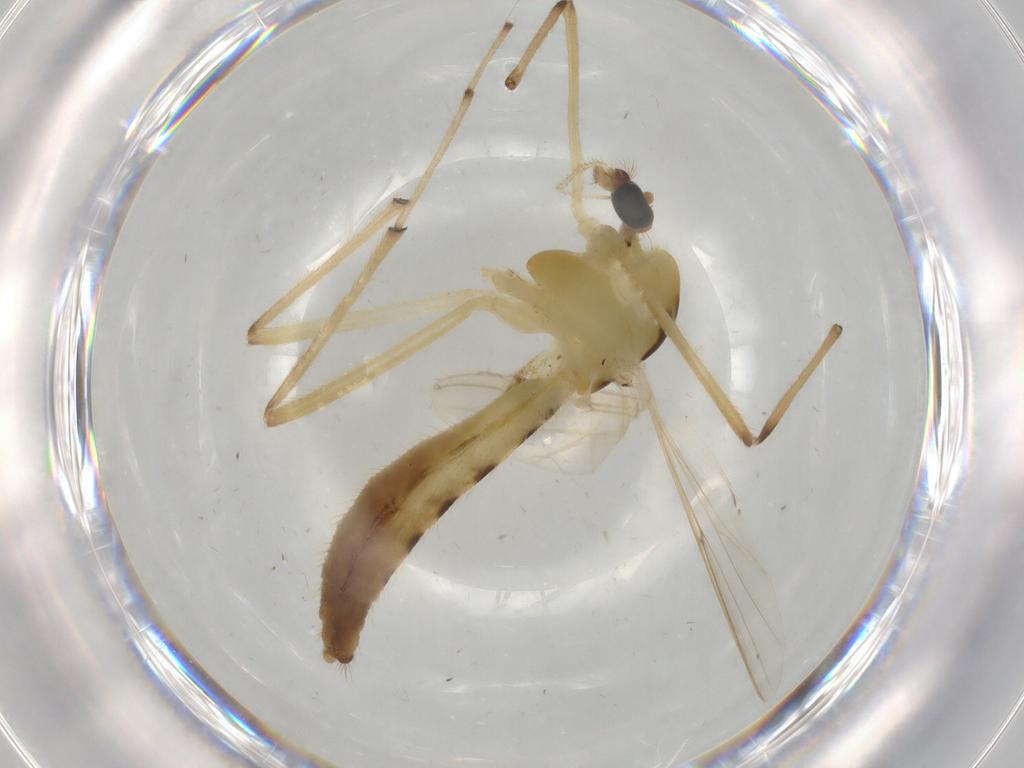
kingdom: Animalia
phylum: Arthropoda
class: Insecta
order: Diptera
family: Chironomidae
